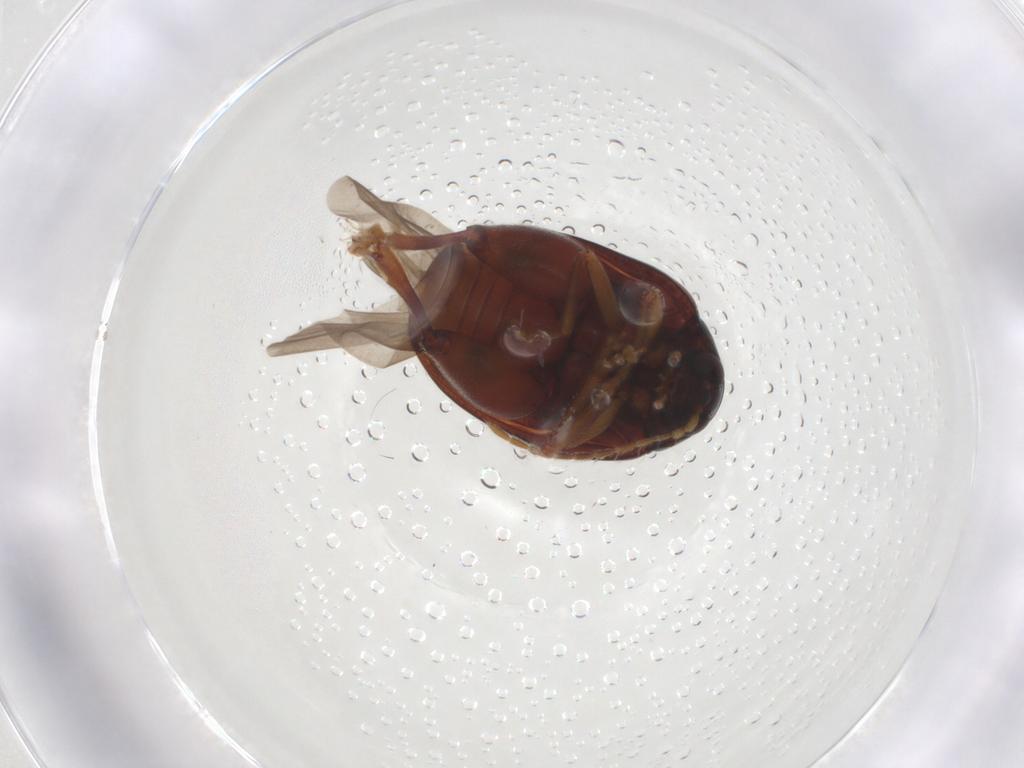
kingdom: Animalia
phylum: Arthropoda
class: Insecta
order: Coleoptera
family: Chrysomelidae
